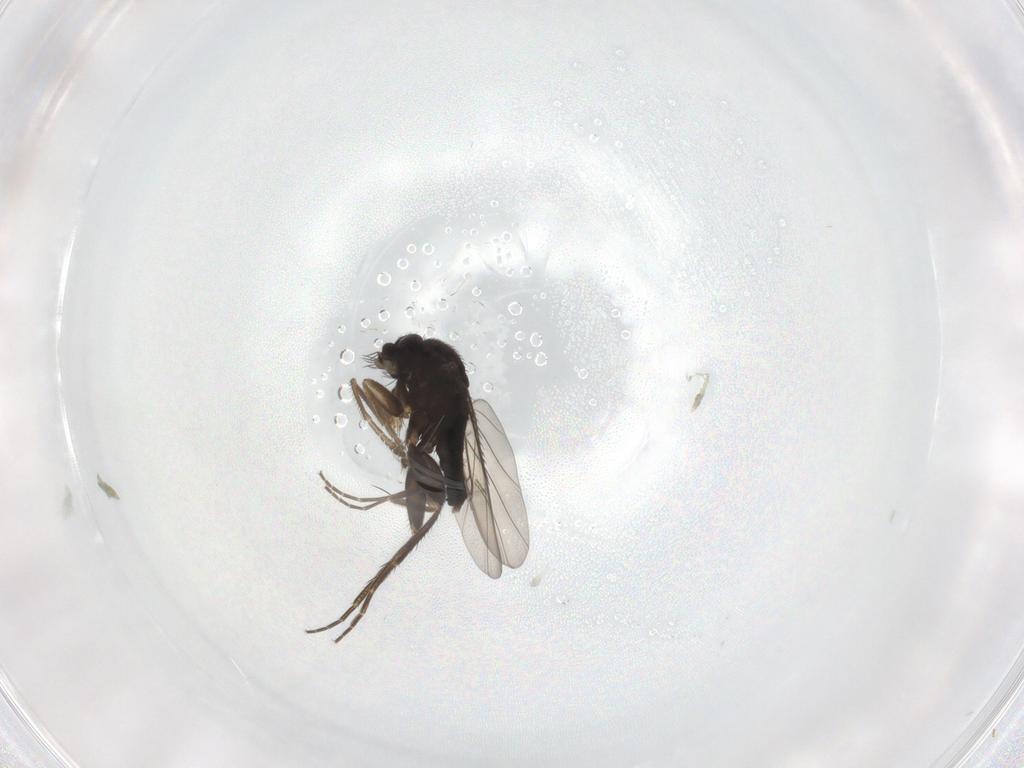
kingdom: Animalia
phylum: Arthropoda
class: Insecta
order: Diptera
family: Phoridae
